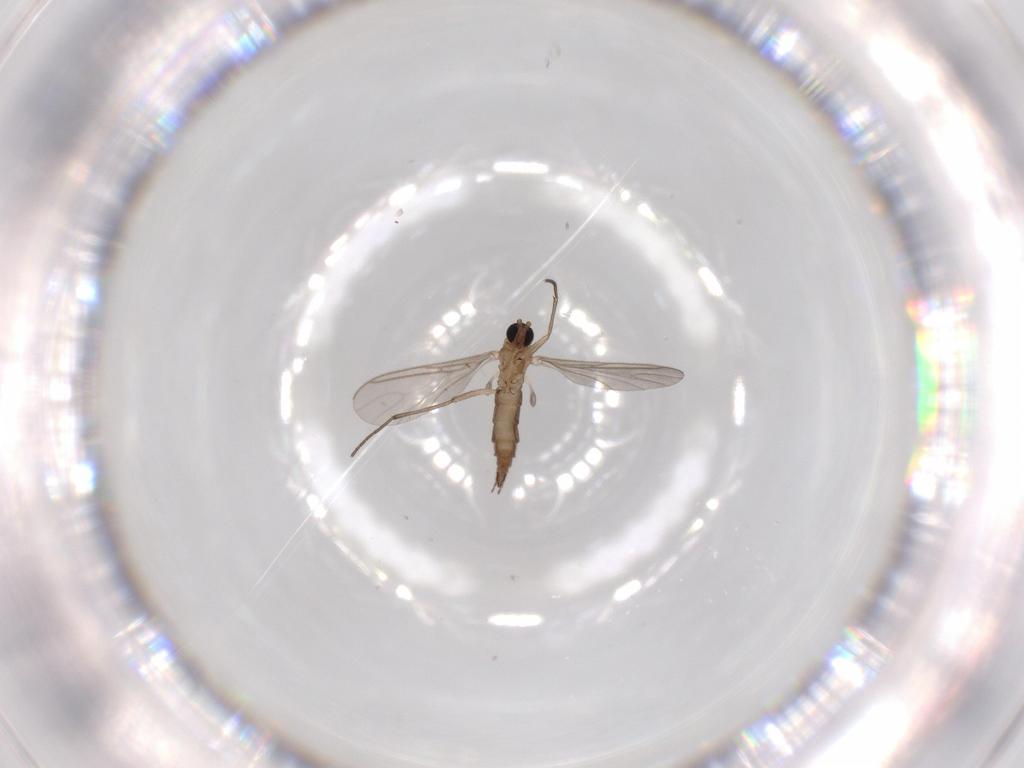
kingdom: Animalia
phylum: Arthropoda
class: Insecta
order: Diptera
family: Sciaridae
